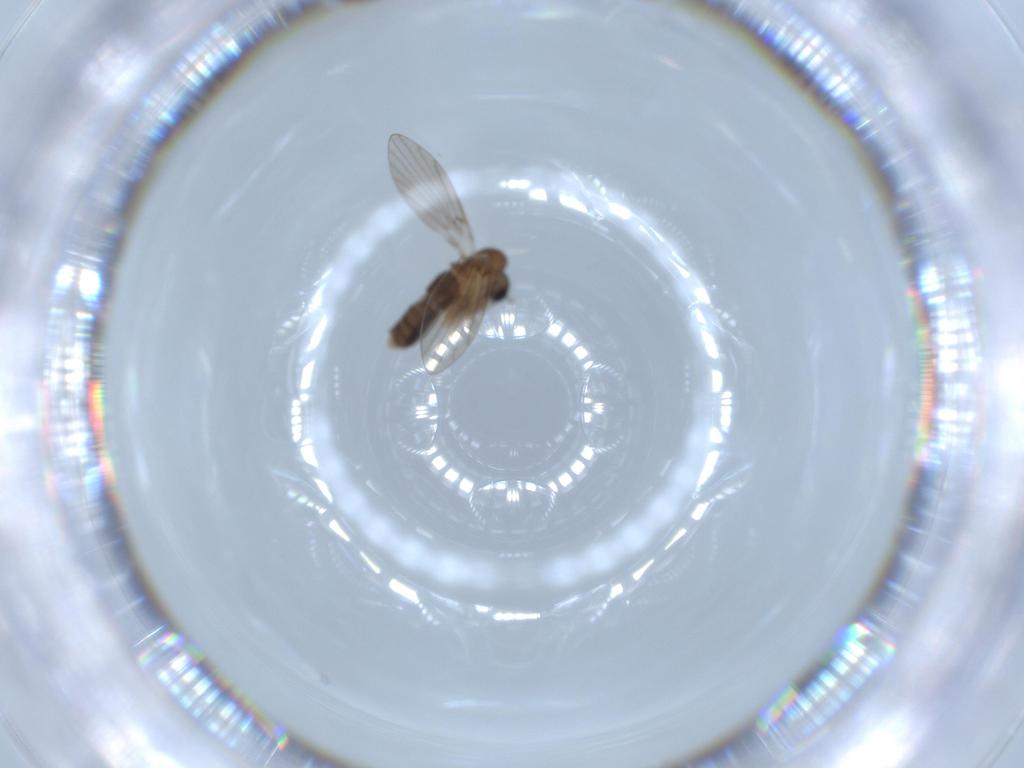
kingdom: Animalia
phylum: Arthropoda
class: Insecta
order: Diptera
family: Psychodidae
